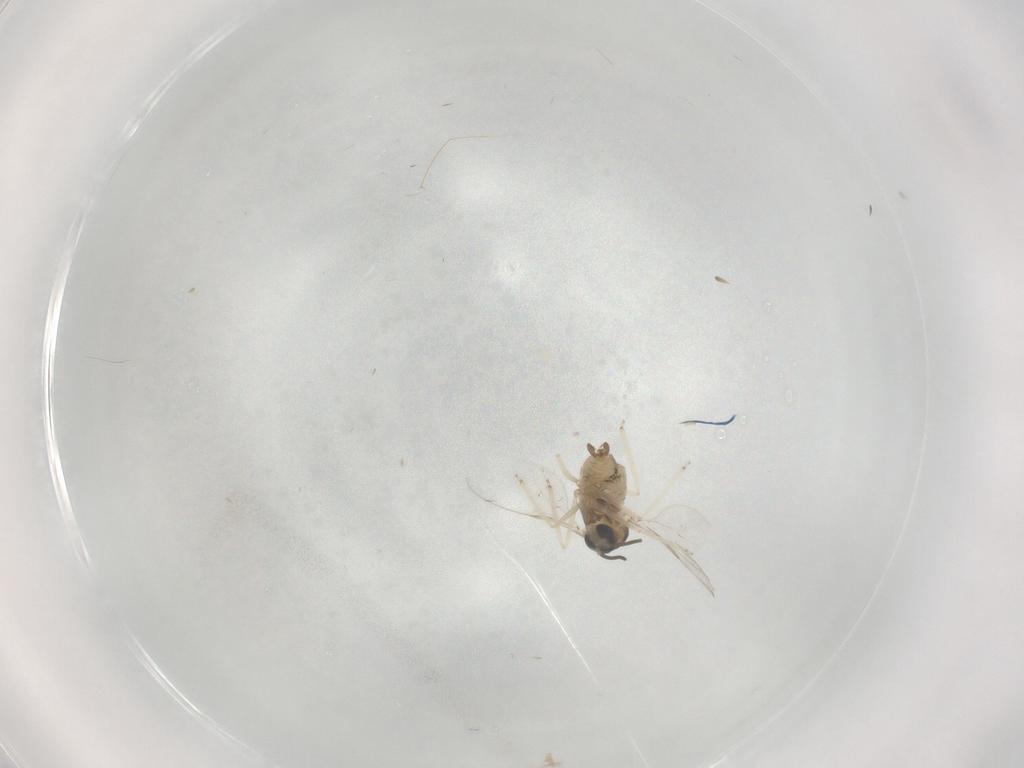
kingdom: Animalia
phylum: Arthropoda
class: Insecta
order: Diptera
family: Cecidomyiidae
